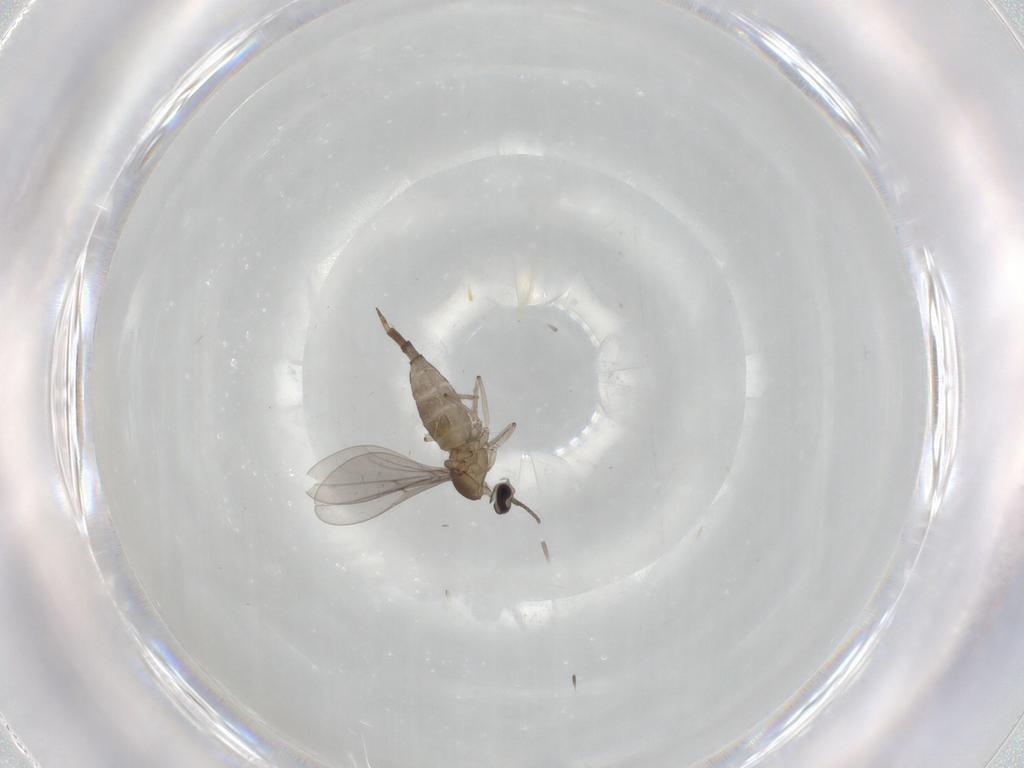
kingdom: Animalia
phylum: Arthropoda
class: Insecta
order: Diptera
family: Cecidomyiidae
